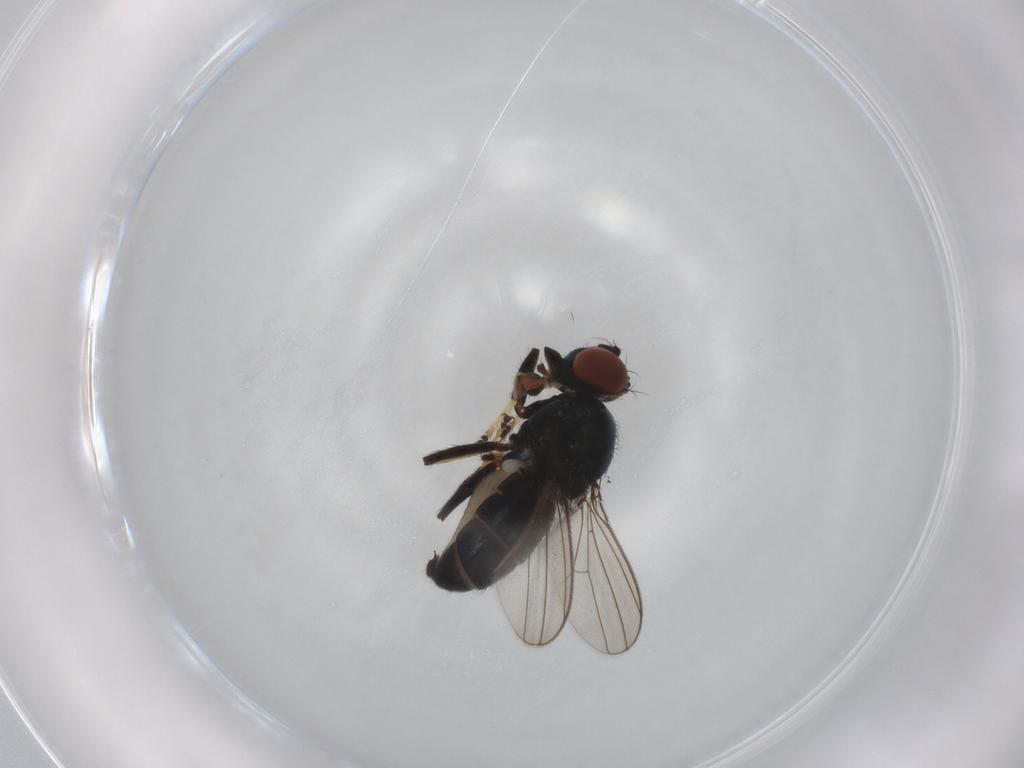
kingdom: Animalia
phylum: Arthropoda
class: Insecta
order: Diptera
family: Ephydridae
